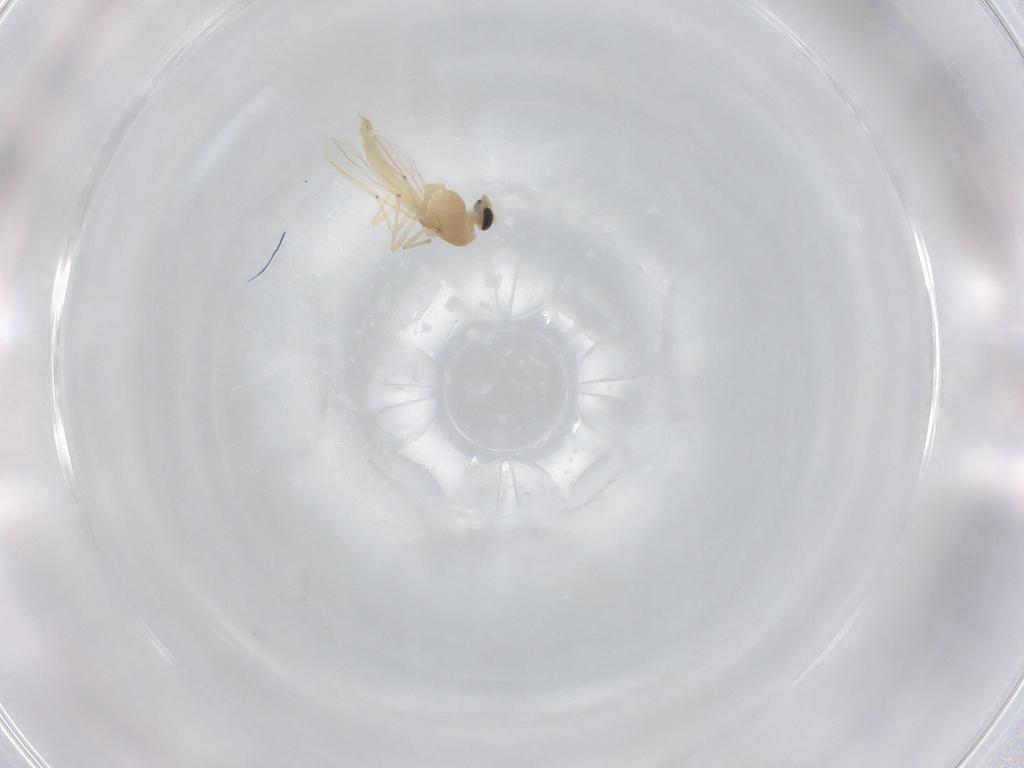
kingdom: Animalia
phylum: Arthropoda
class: Insecta
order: Diptera
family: Chironomidae
